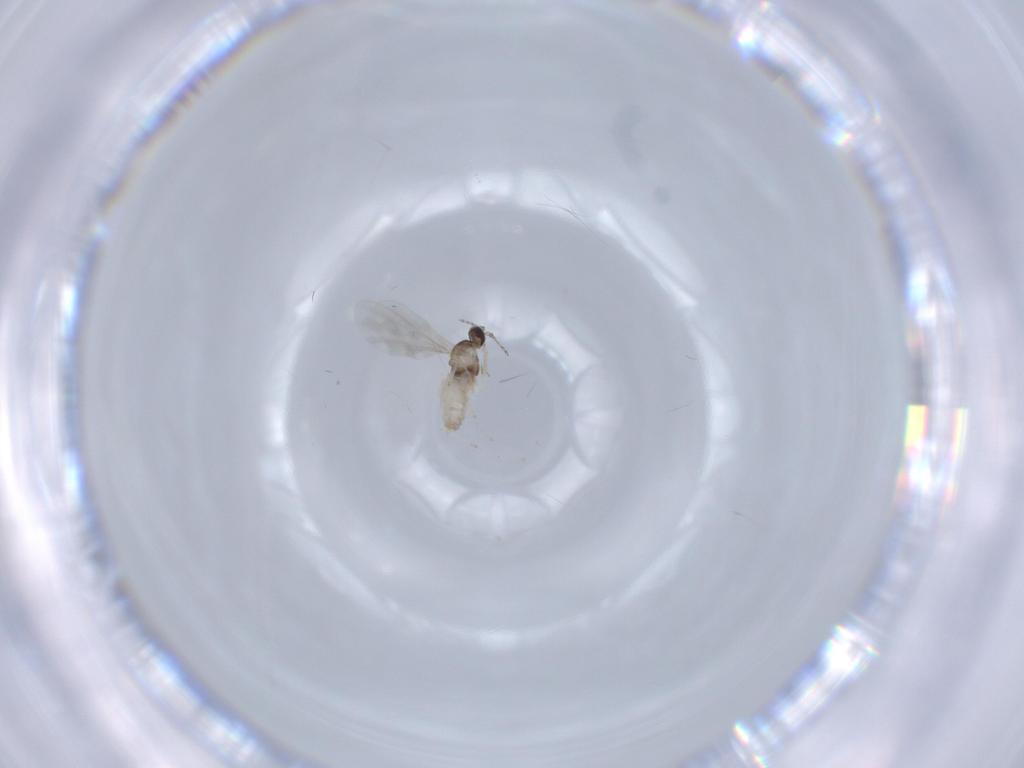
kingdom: Animalia
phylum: Arthropoda
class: Insecta
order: Diptera
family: Cecidomyiidae
